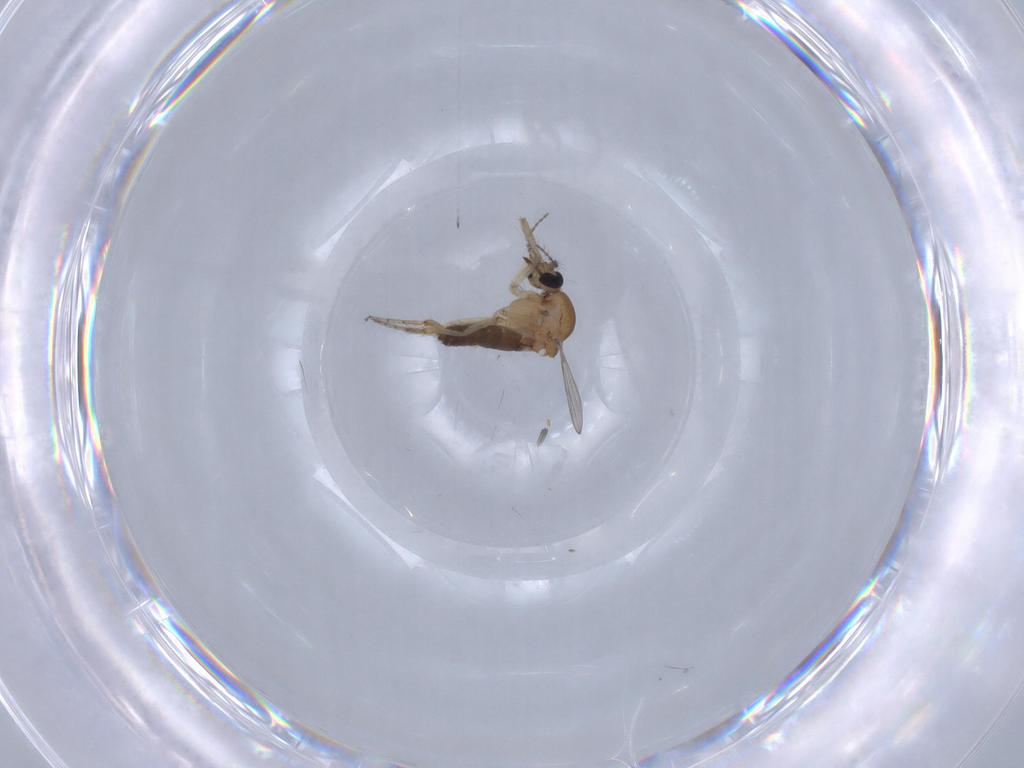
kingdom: Animalia
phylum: Arthropoda
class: Insecta
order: Diptera
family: Ceratopogonidae
